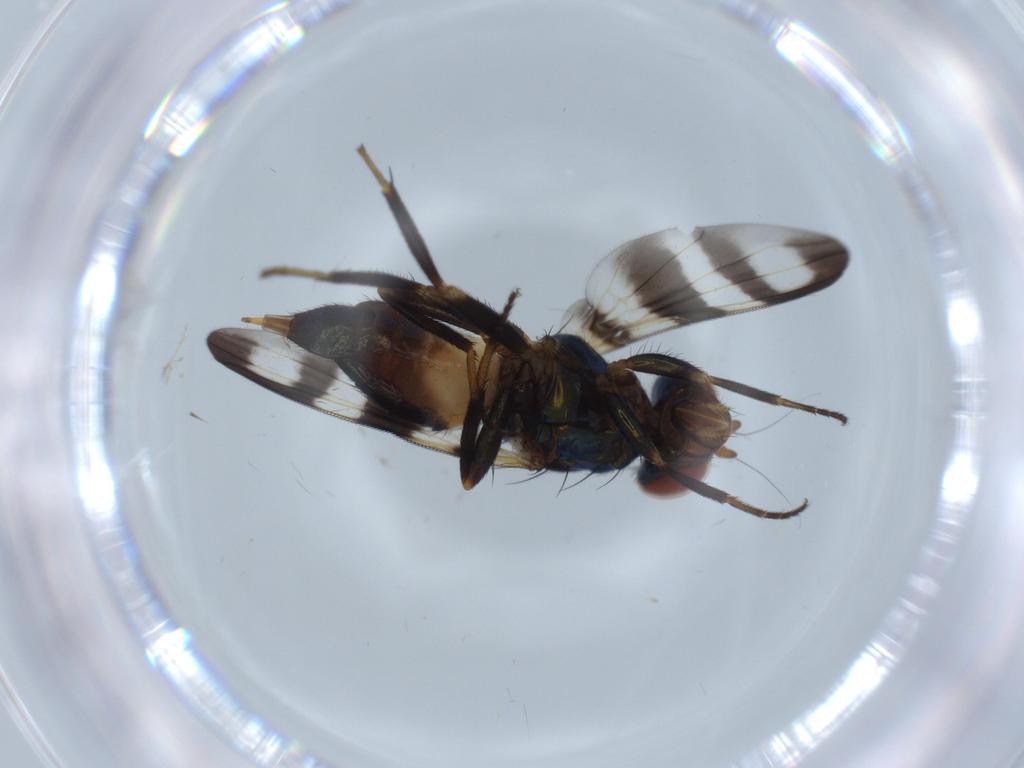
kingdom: Animalia
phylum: Arthropoda
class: Insecta
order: Diptera
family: Ulidiidae
